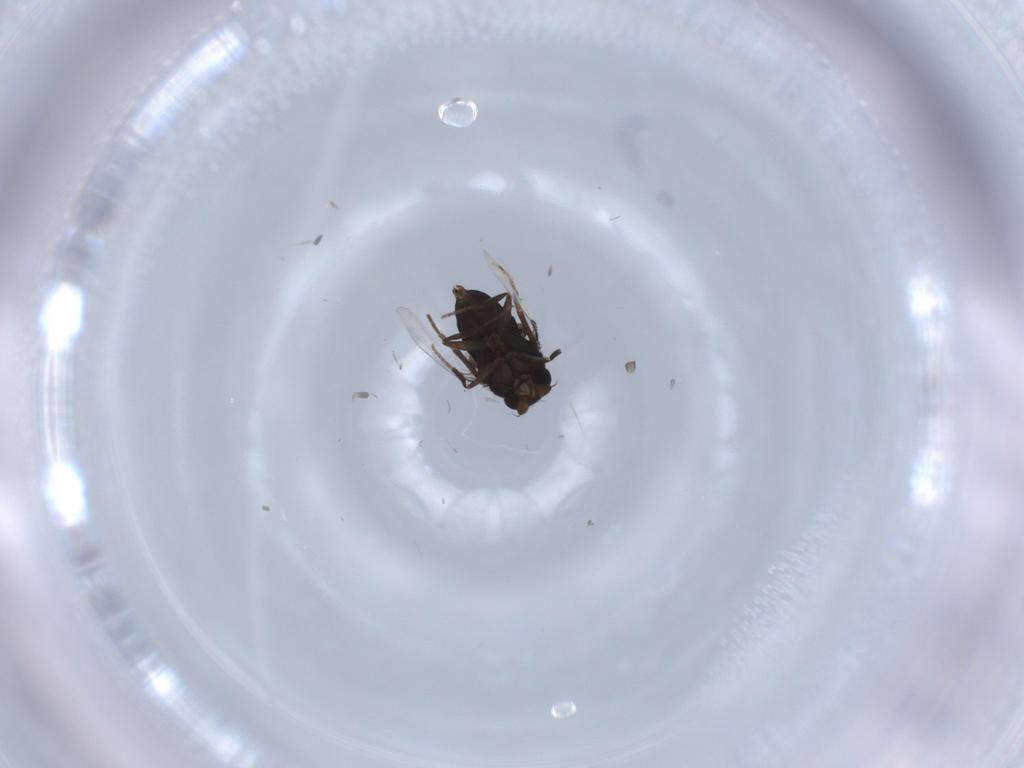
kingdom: Animalia
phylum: Arthropoda
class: Insecta
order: Diptera
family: Phoridae
